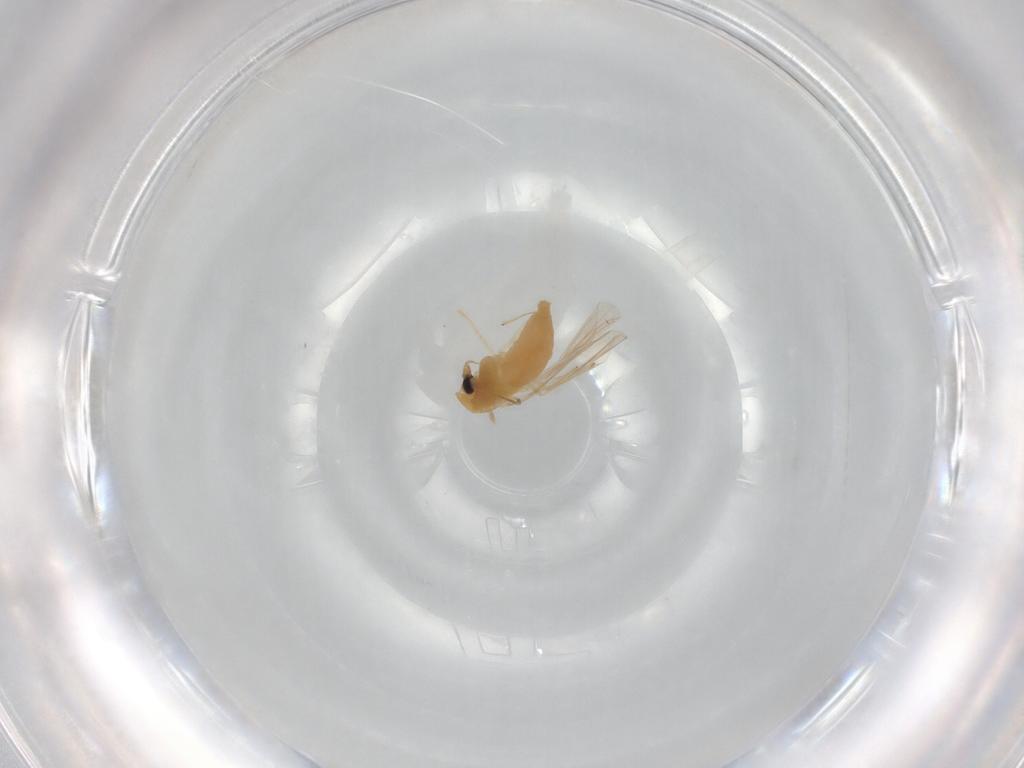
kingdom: Animalia
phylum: Arthropoda
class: Insecta
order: Diptera
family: Chironomidae
